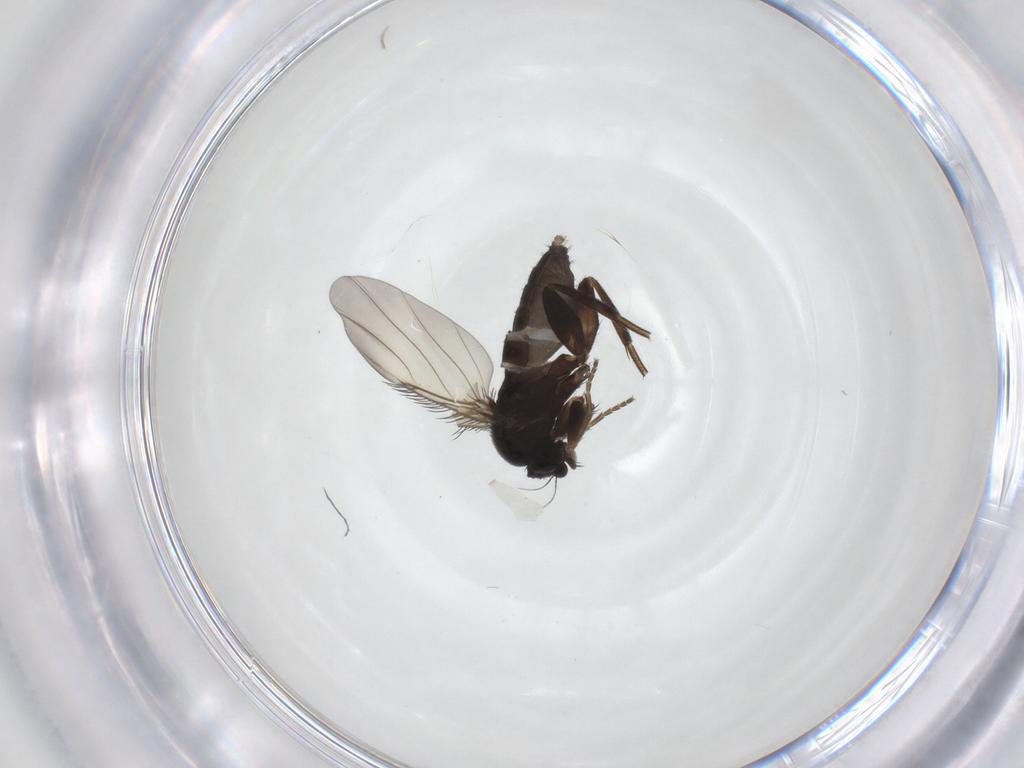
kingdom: Animalia
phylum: Arthropoda
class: Insecta
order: Diptera
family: Phoridae
